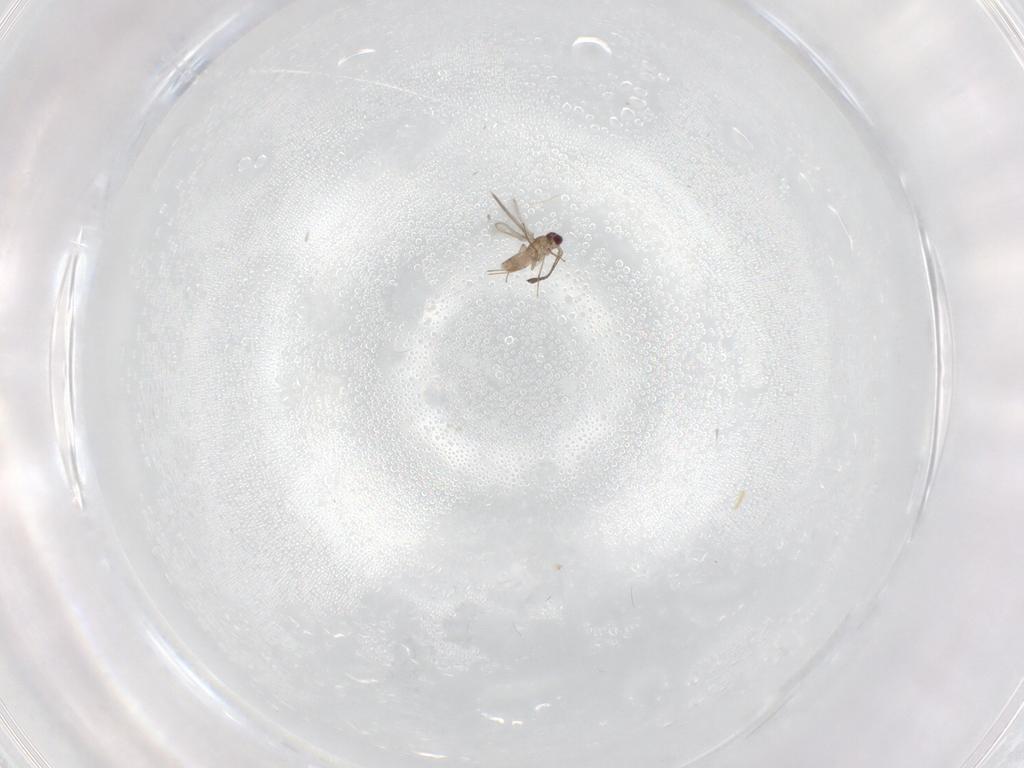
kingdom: Animalia
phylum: Arthropoda
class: Insecta
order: Hymenoptera
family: Mymaridae
